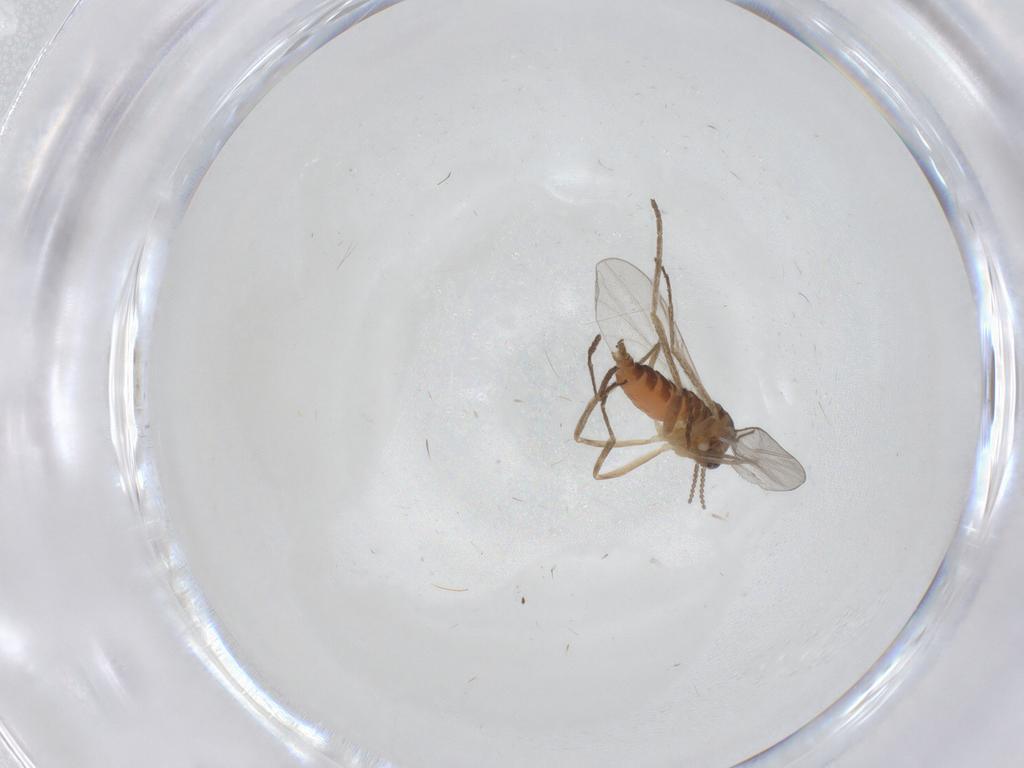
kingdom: Animalia
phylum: Arthropoda
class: Insecta
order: Diptera
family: Cecidomyiidae
